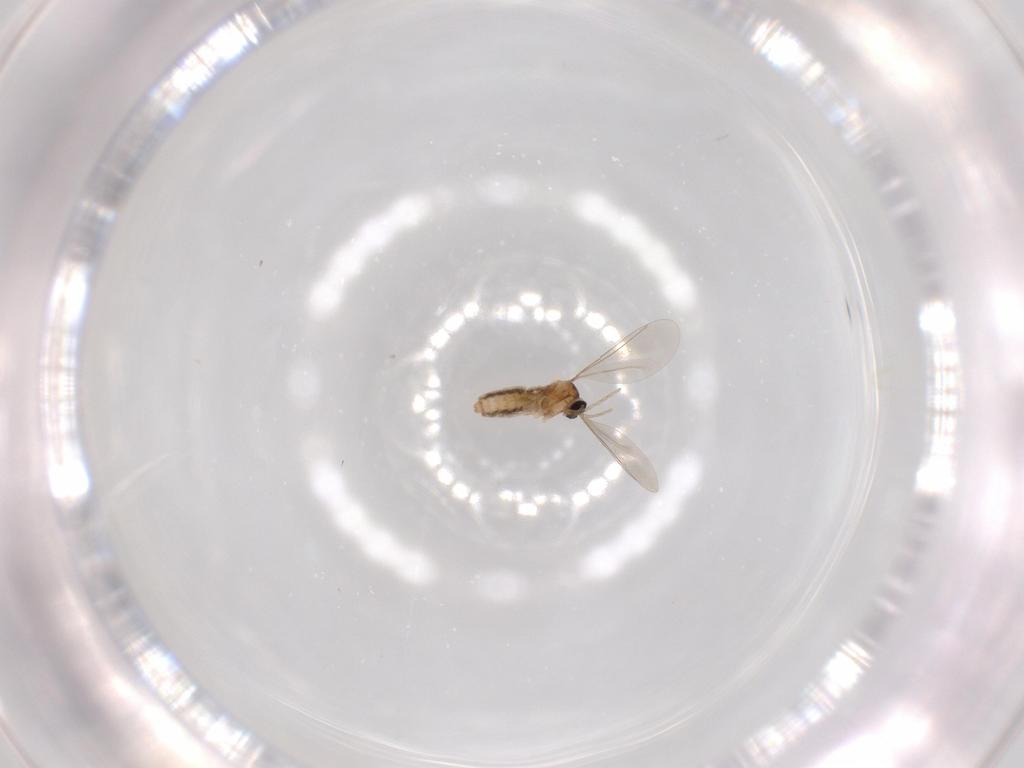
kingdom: Animalia
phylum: Arthropoda
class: Insecta
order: Diptera
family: Cecidomyiidae
